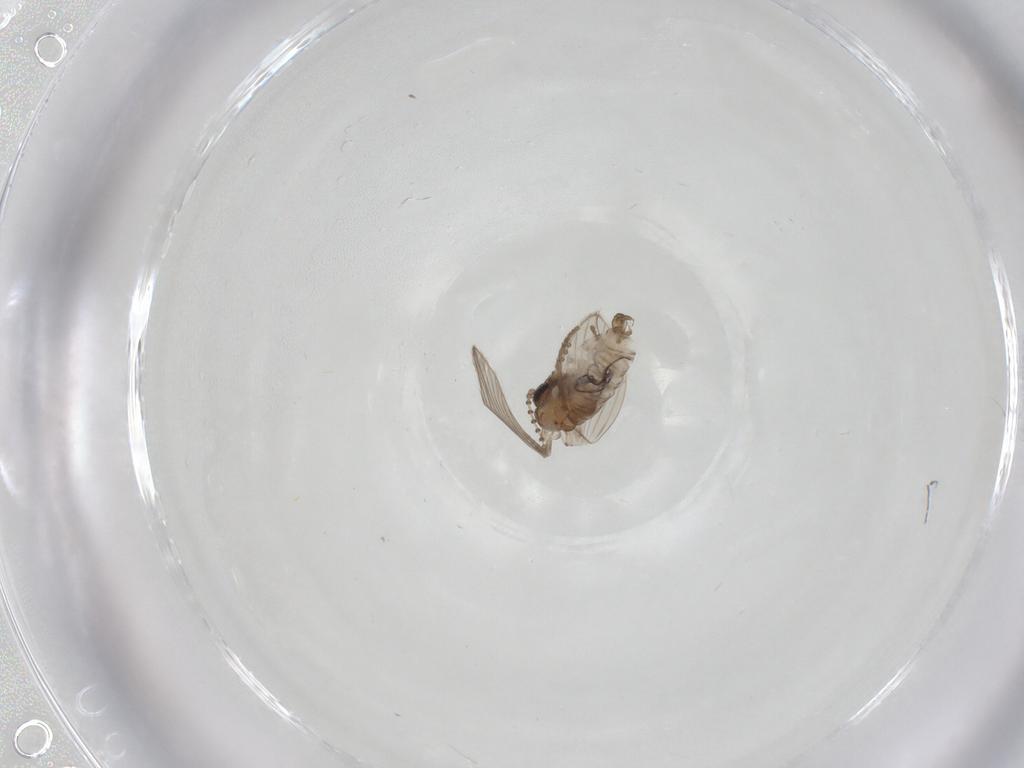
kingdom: Animalia
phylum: Arthropoda
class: Insecta
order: Diptera
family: Psychodidae
